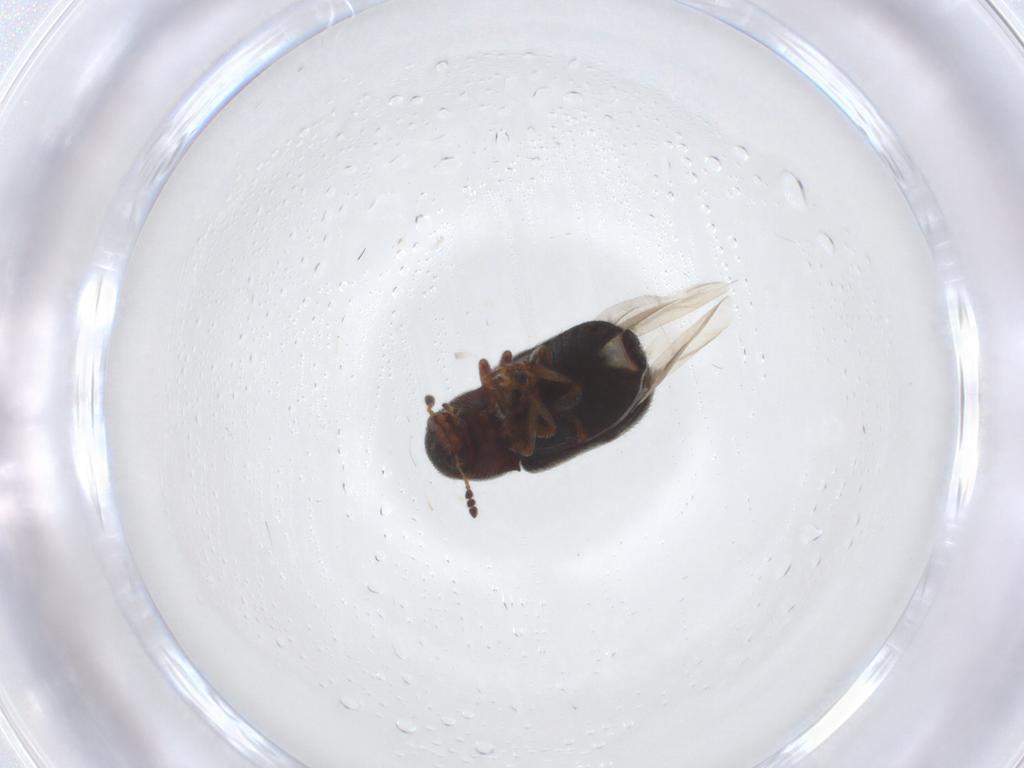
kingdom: Animalia
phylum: Arthropoda
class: Insecta
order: Coleoptera
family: Anthribidae
